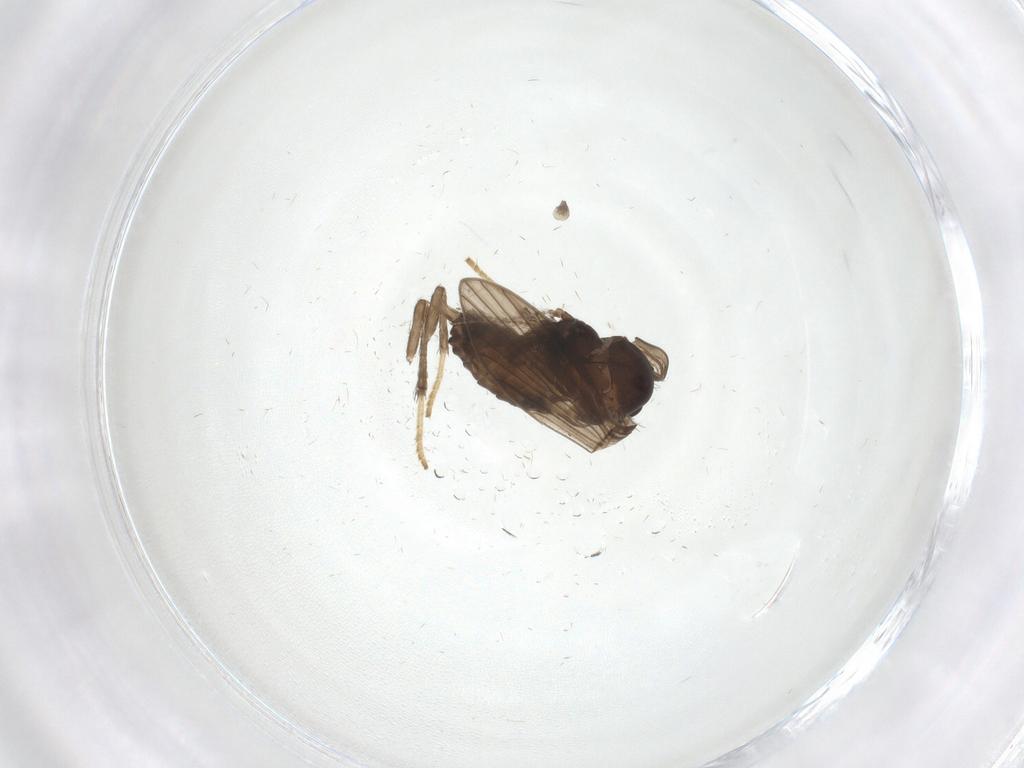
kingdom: Animalia
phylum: Arthropoda
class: Insecta
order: Diptera
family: Psychodidae
